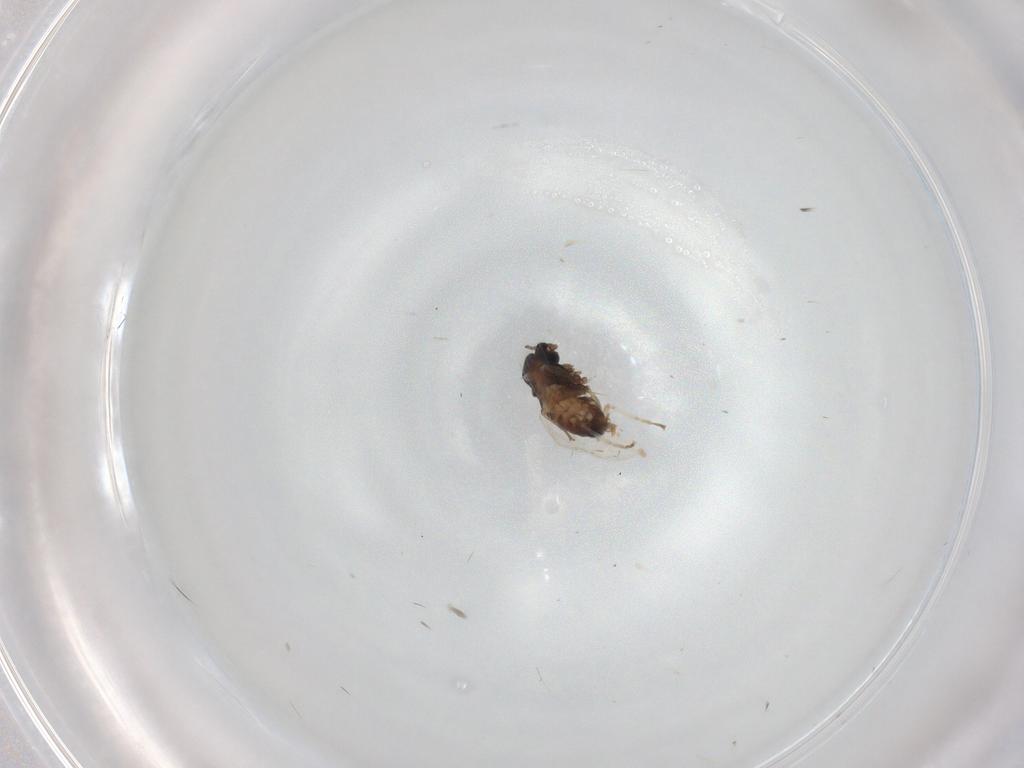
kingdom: Animalia
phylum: Arthropoda
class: Insecta
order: Diptera
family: Cecidomyiidae
